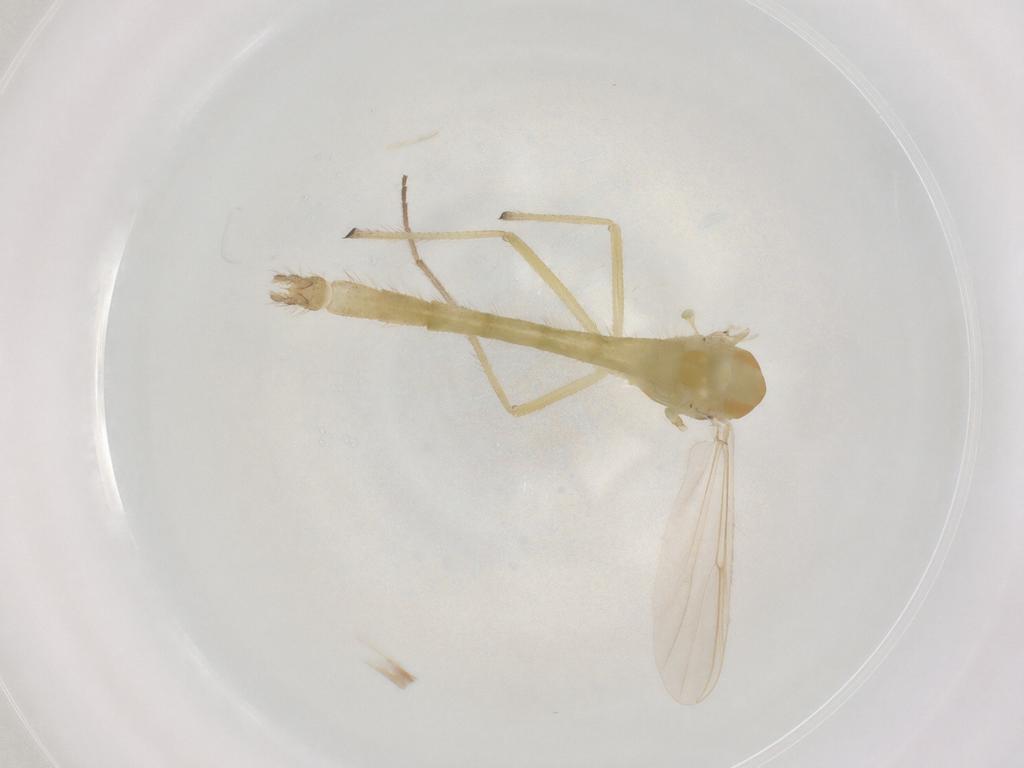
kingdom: Animalia
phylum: Arthropoda
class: Insecta
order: Diptera
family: Chironomidae
